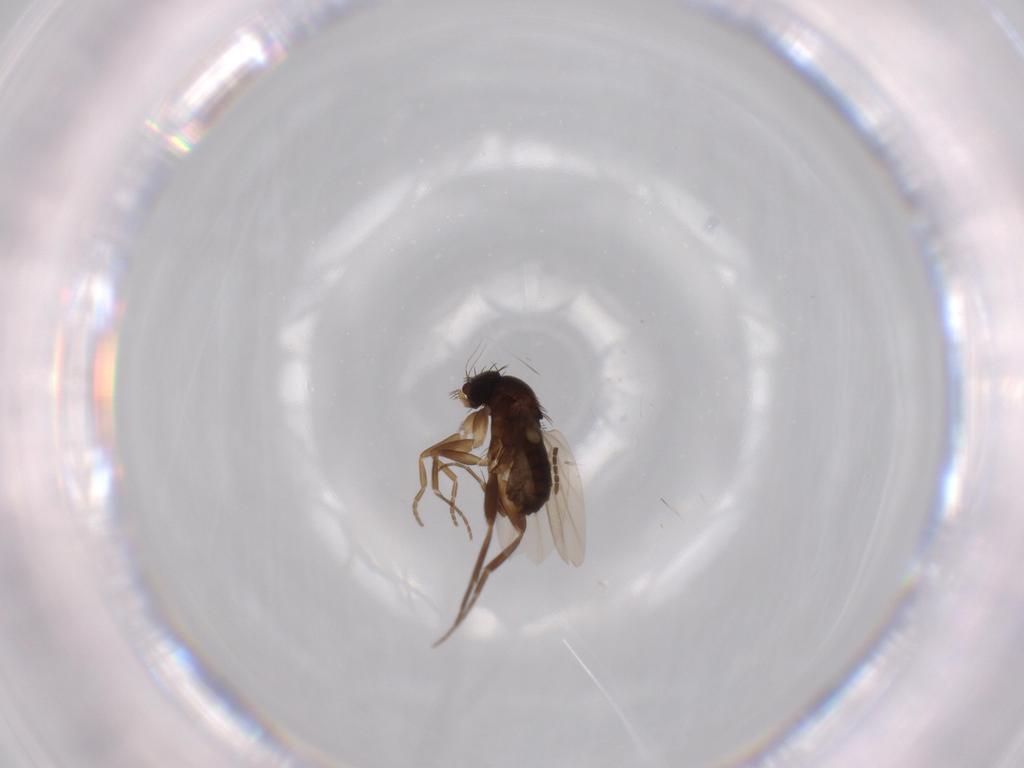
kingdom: Animalia
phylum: Arthropoda
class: Insecta
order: Diptera
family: Sciaridae
